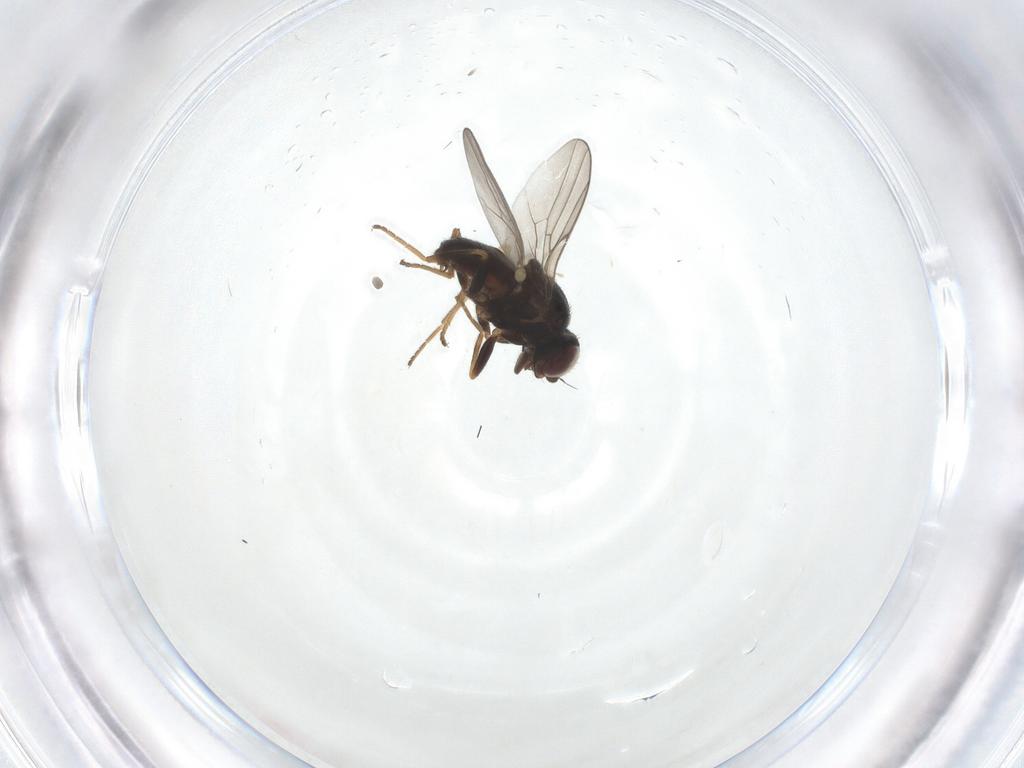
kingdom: Animalia
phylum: Arthropoda
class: Insecta
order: Diptera
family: Chloropidae
